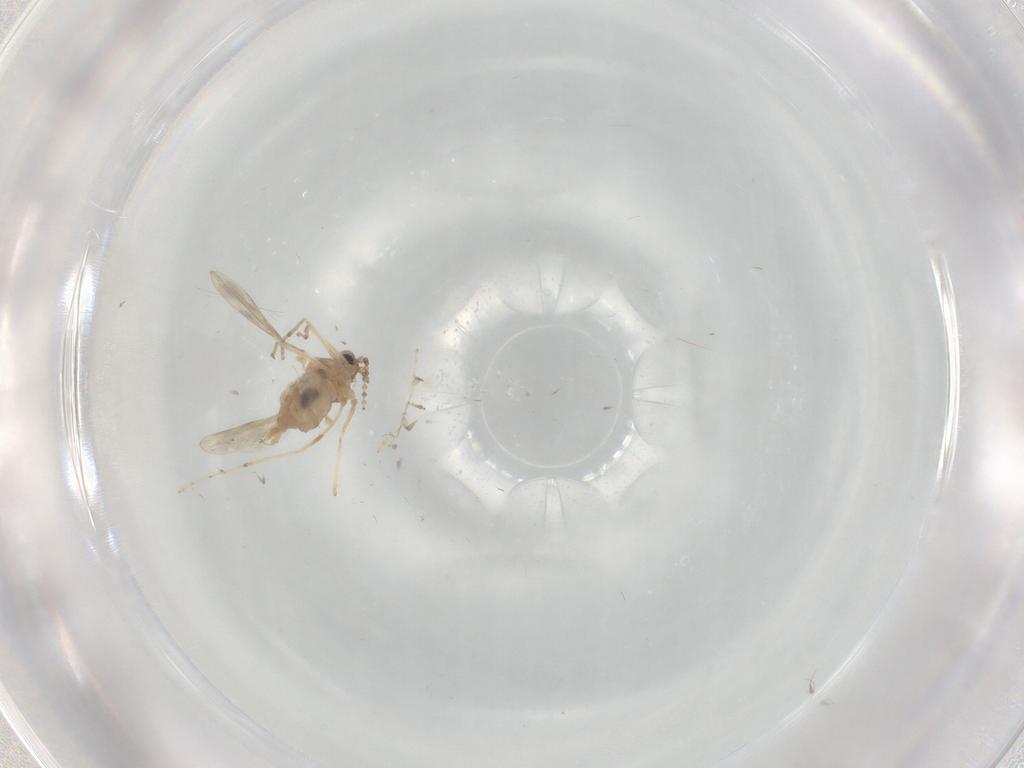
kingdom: Animalia
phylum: Arthropoda
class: Insecta
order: Diptera
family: Cecidomyiidae
